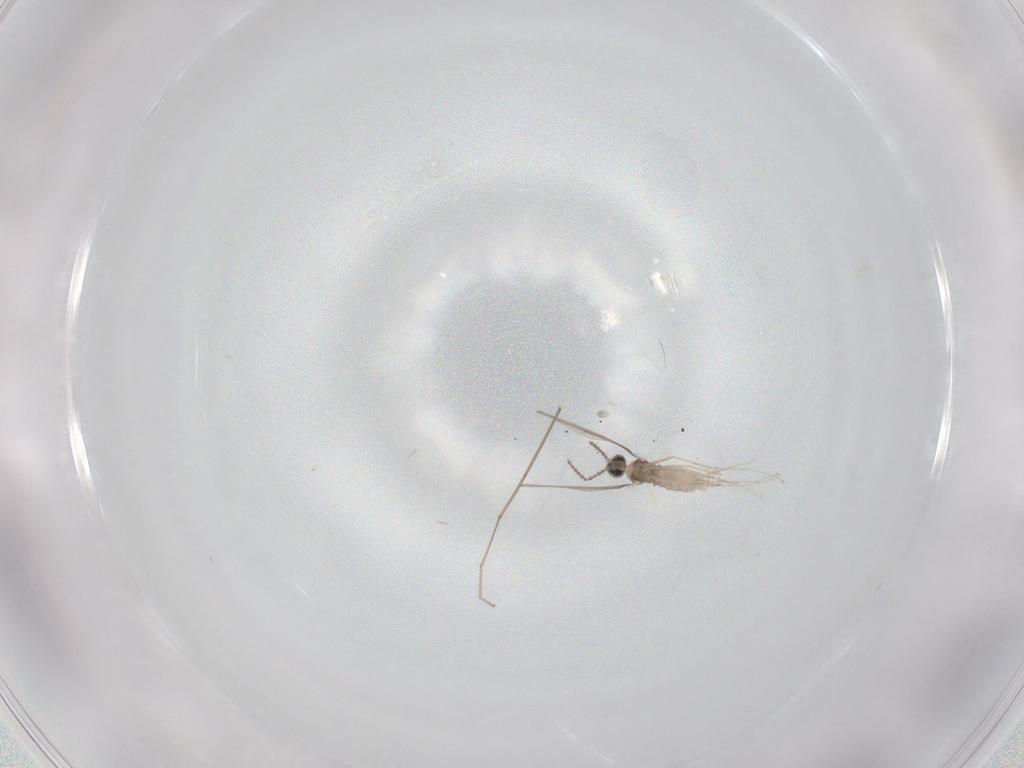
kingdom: Animalia
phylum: Arthropoda
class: Insecta
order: Diptera
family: Cecidomyiidae
